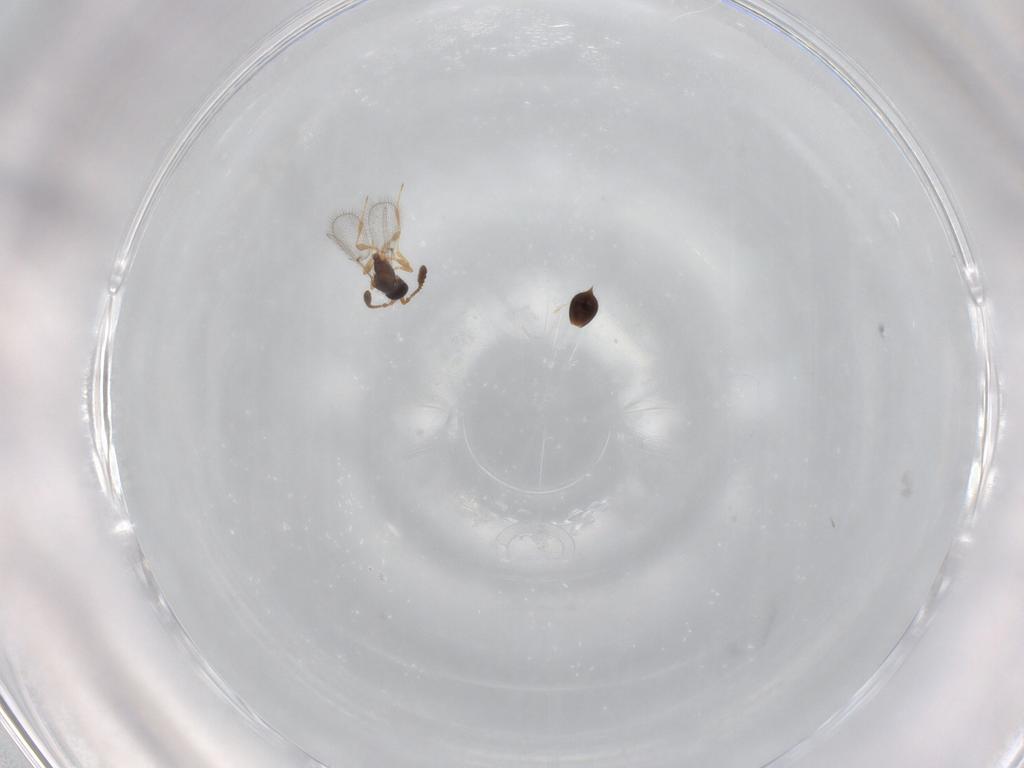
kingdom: Animalia
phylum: Arthropoda
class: Insecta
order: Hymenoptera
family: Diapriidae
